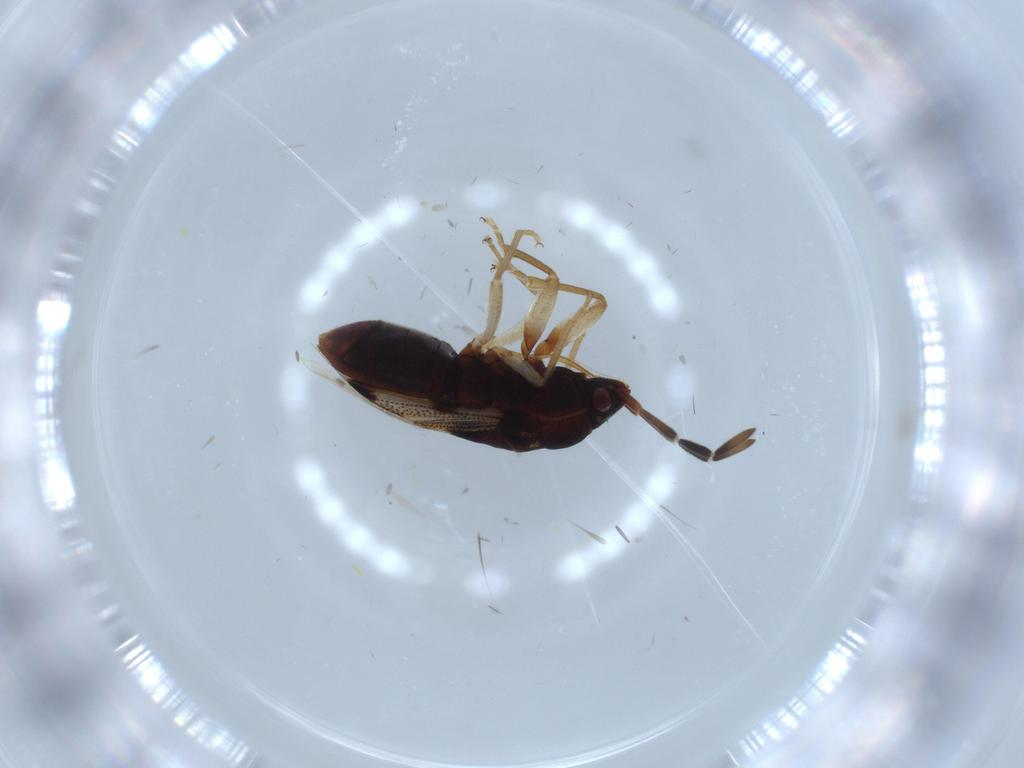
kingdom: Animalia
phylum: Arthropoda
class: Insecta
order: Hemiptera
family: Rhyparochromidae
